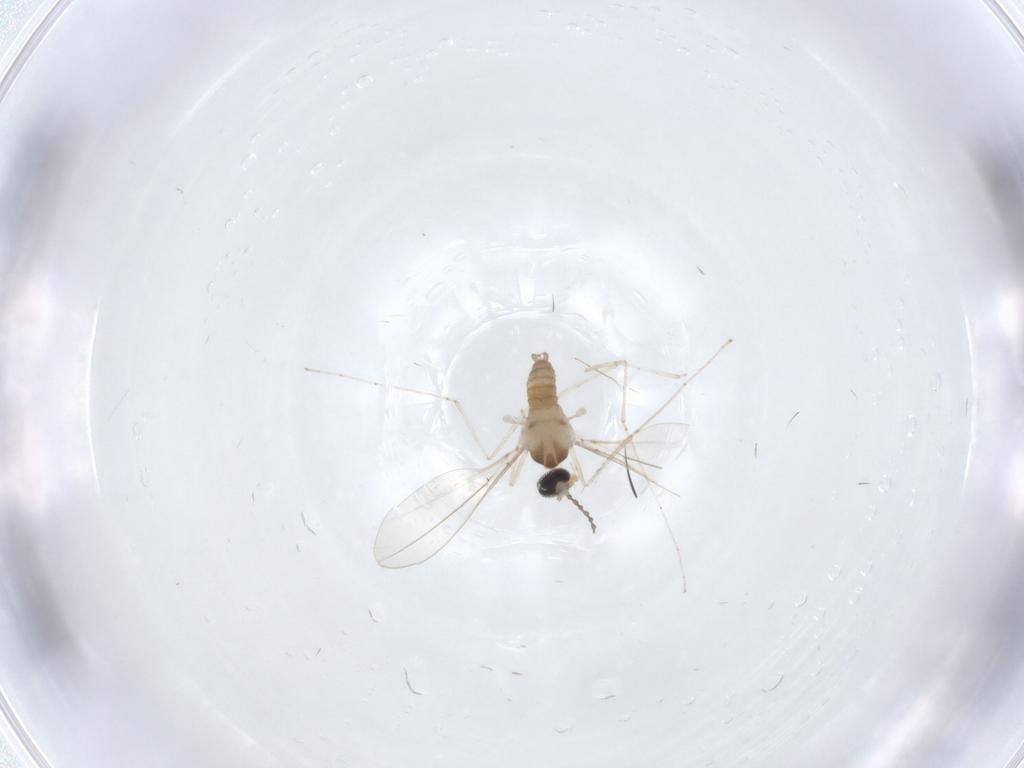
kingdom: Animalia
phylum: Arthropoda
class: Insecta
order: Diptera
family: Cecidomyiidae
